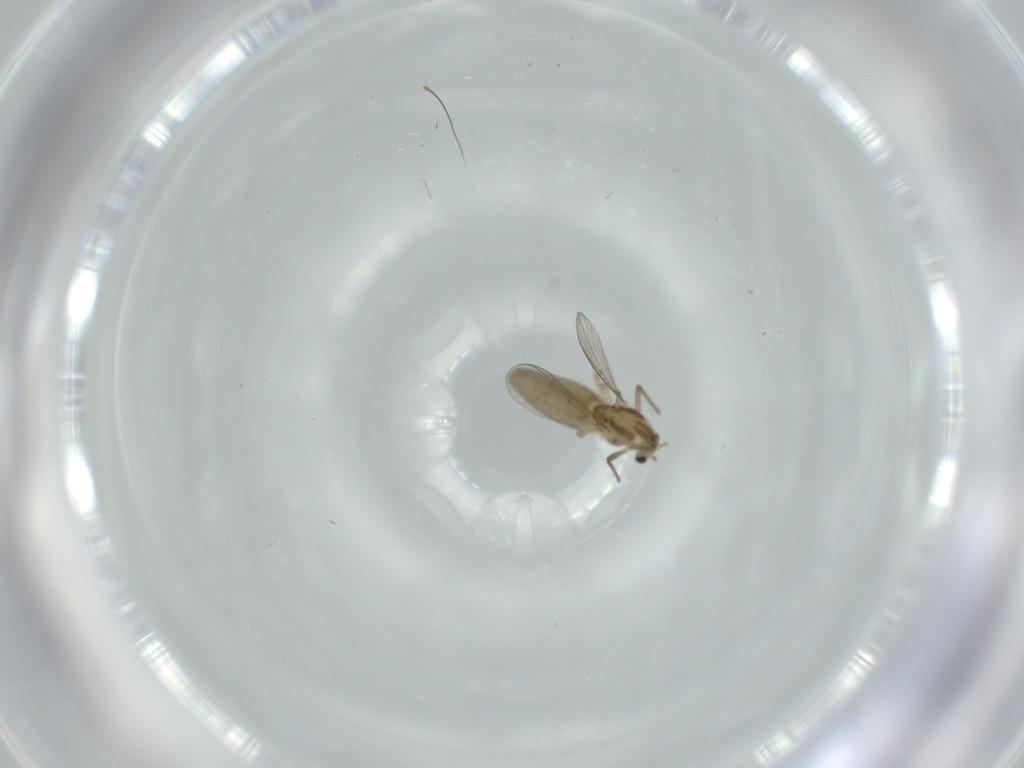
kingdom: Animalia
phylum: Arthropoda
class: Insecta
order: Diptera
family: Chironomidae
